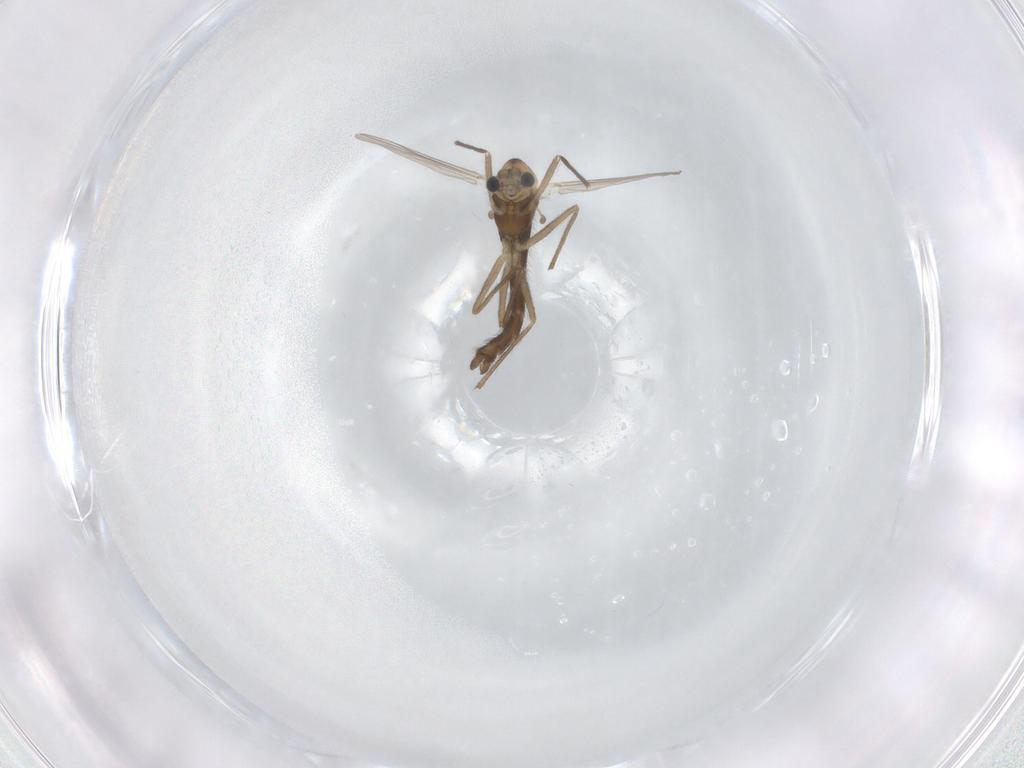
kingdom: Animalia
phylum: Arthropoda
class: Insecta
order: Diptera
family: Chironomidae
